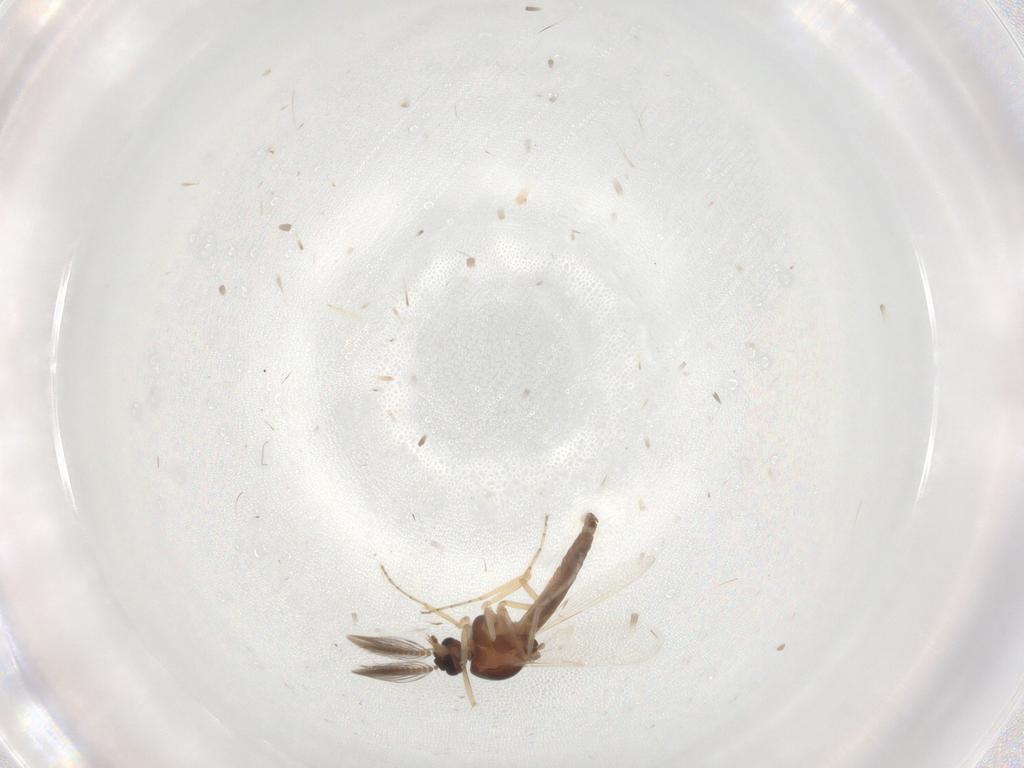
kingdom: Animalia
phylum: Arthropoda
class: Insecta
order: Diptera
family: Ceratopogonidae
